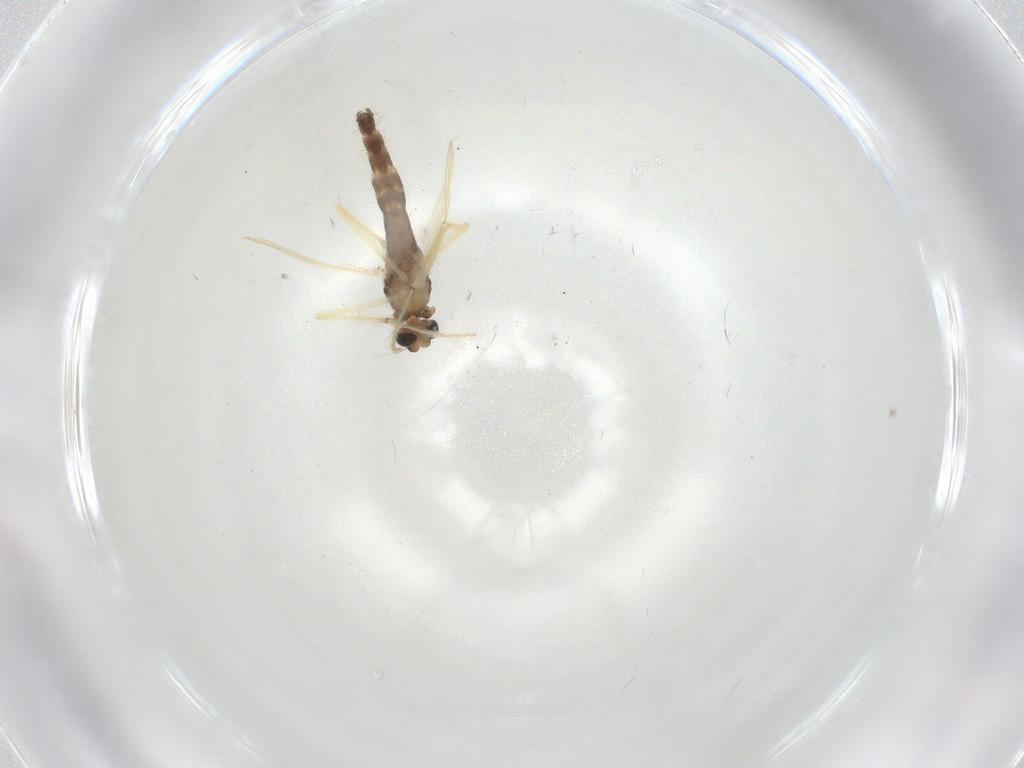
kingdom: Animalia
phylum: Arthropoda
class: Insecta
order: Diptera
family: Chironomidae
